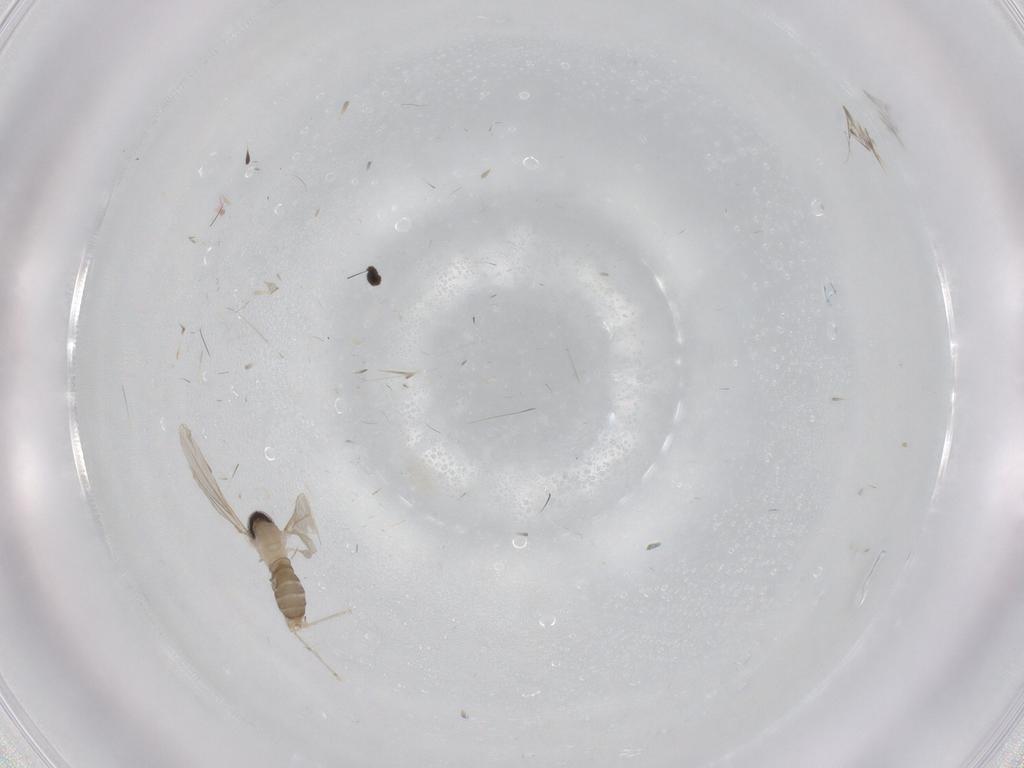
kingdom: Animalia
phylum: Arthropoda
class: Insecta
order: Diptera
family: Cecidomyiidae
